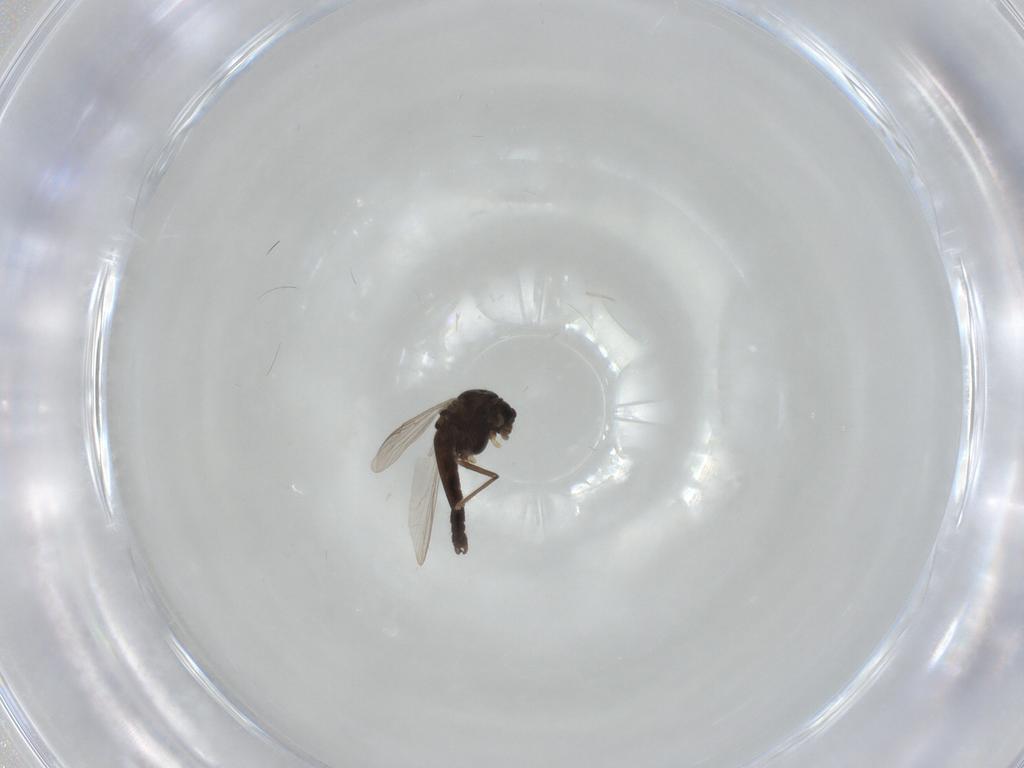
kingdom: Animalia
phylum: Arthropoda
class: Insecta
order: Diptera
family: Chironomidae
